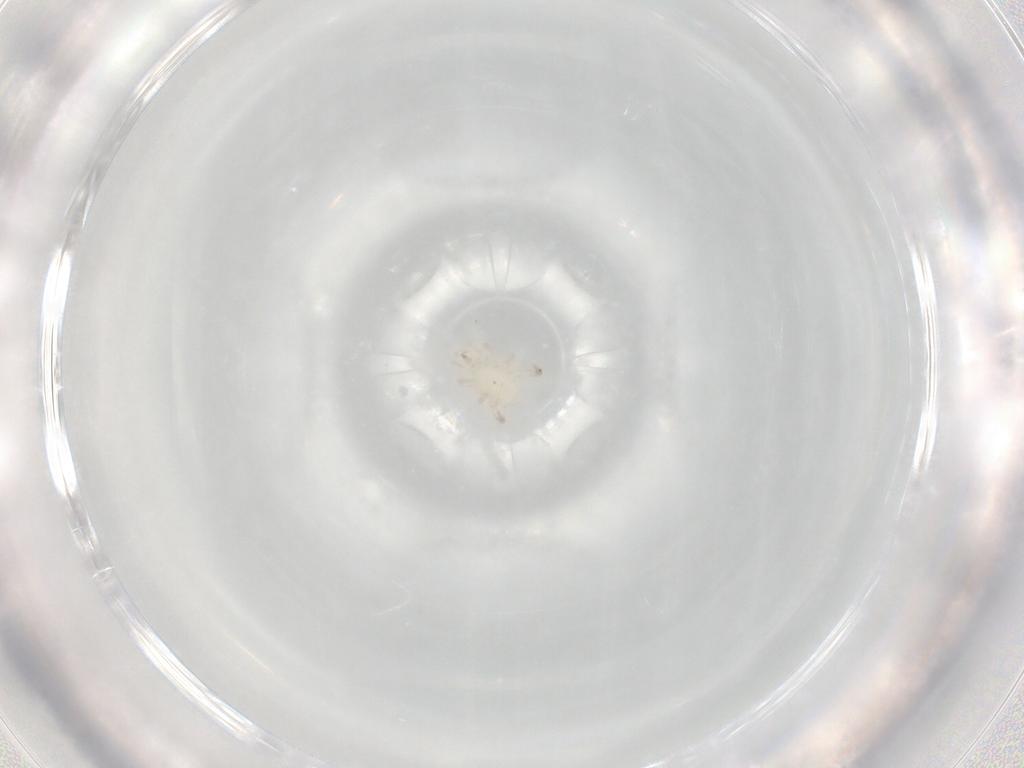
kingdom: Animalia
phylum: Arthropoda
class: Arachnida
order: Mesostigmata
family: Macrochelidae
